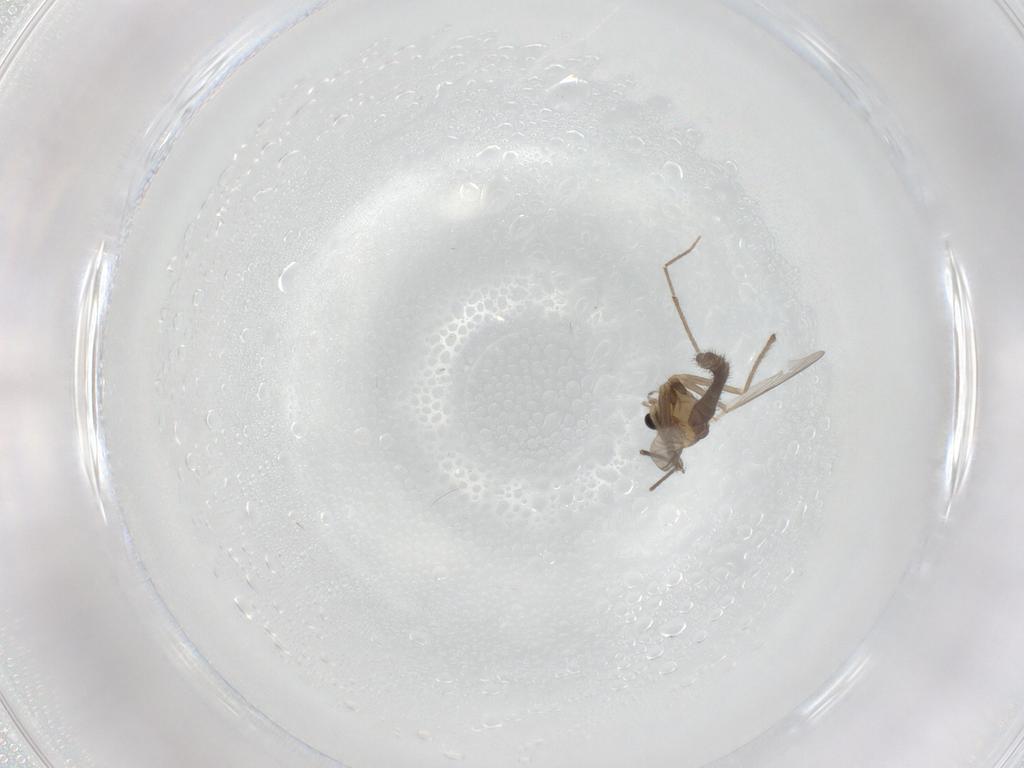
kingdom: Animalia
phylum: Arthropoda
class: Insecta
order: Diptera
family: Chironomidae
